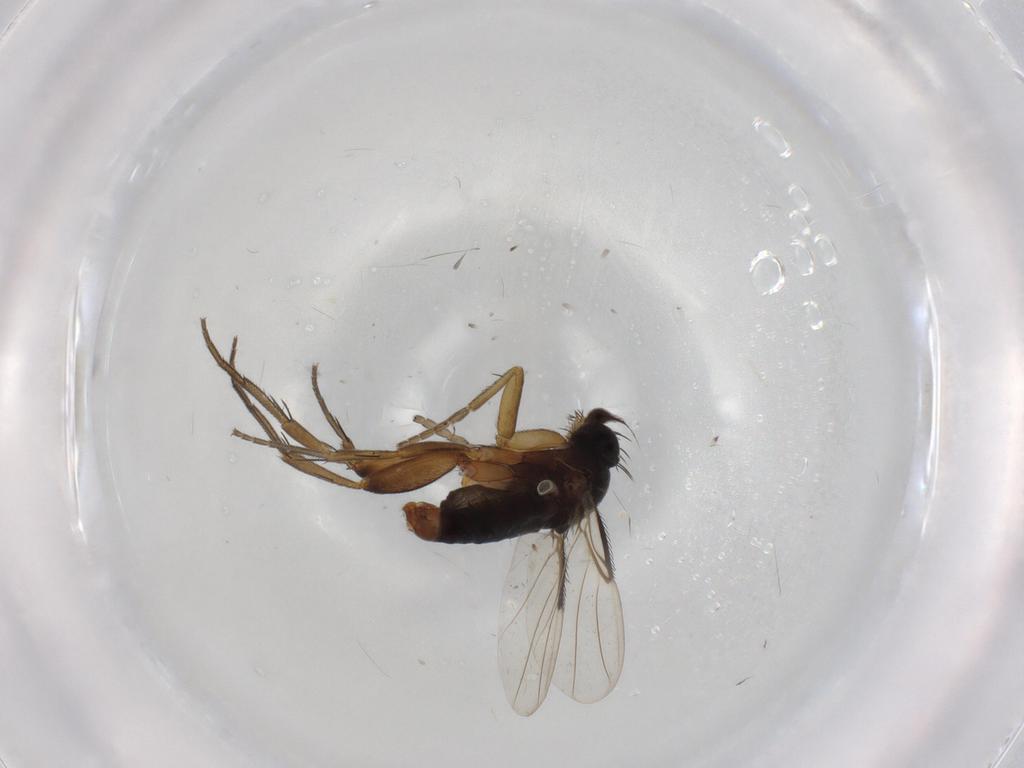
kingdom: Animalia
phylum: Arthropoda
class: Insecta
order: Diptera
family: Phoridae
